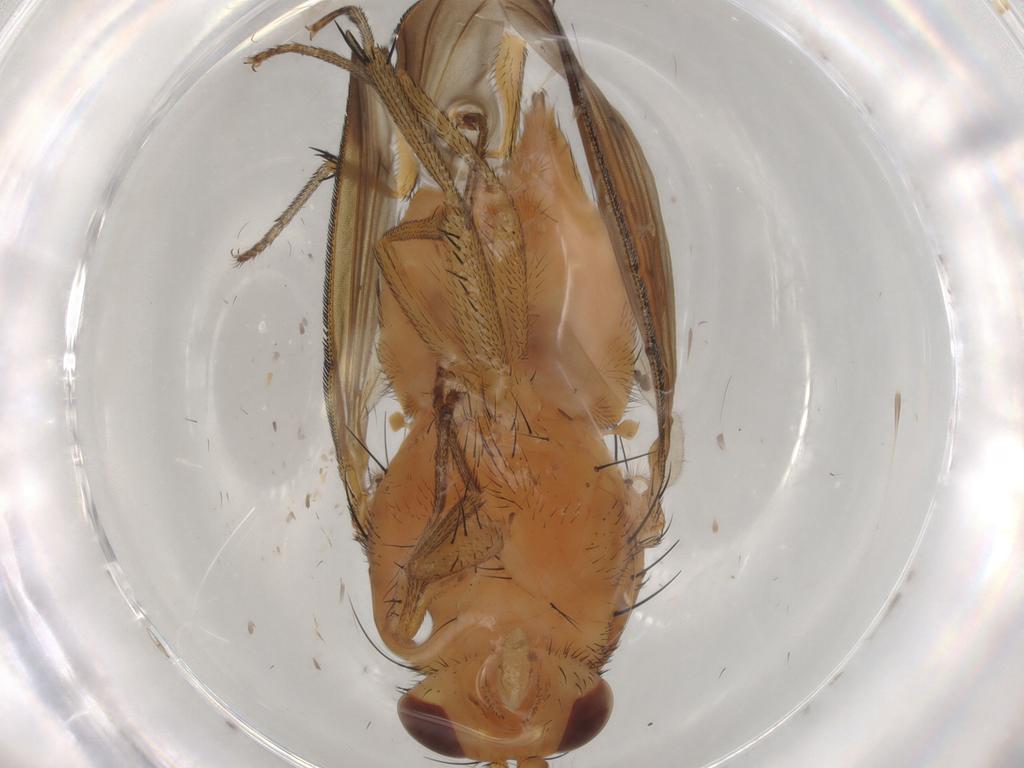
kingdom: Animalia
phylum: Arthropoda
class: Insecta
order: Diptera
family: Lauxaniidae
